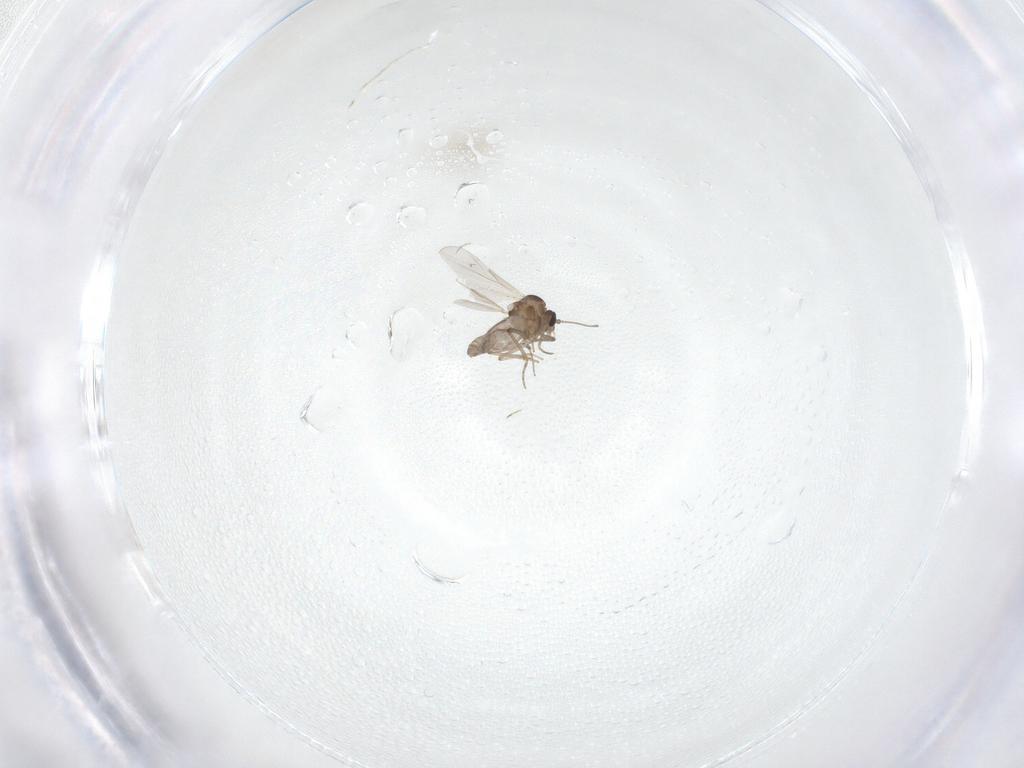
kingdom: Animalia
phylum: Arthropoda
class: Insecta
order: Diptera
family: Ceratopogonidae
